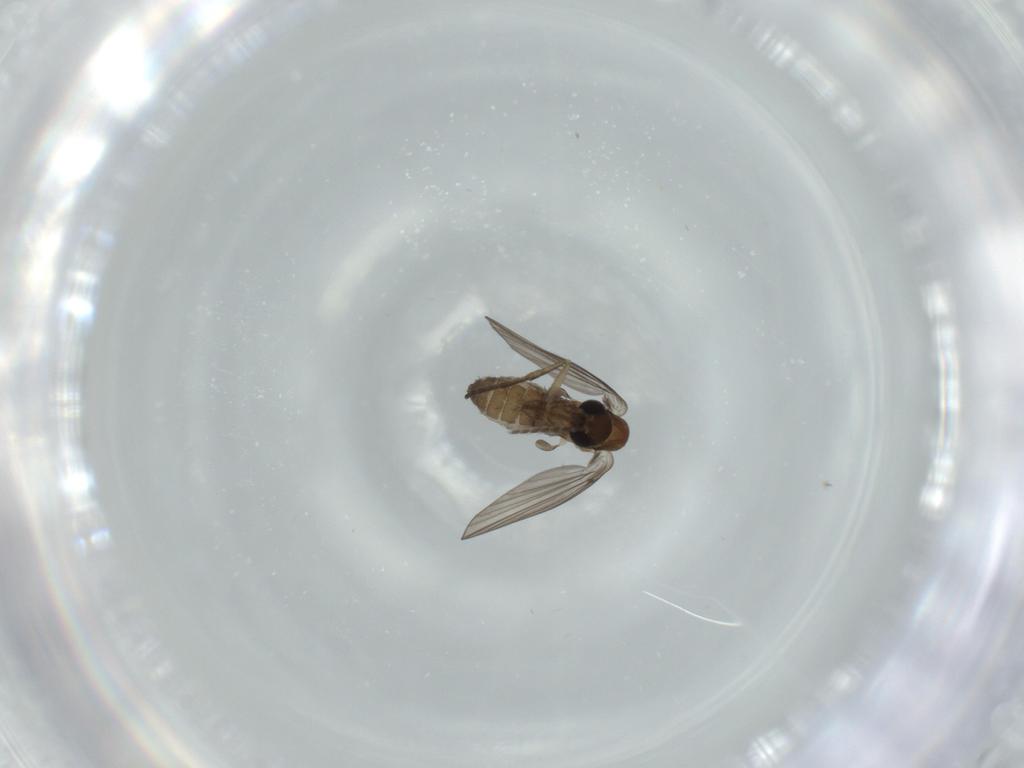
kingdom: Animalia
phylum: Arthropoda
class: Insecta
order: Diptera
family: Psychodidae
